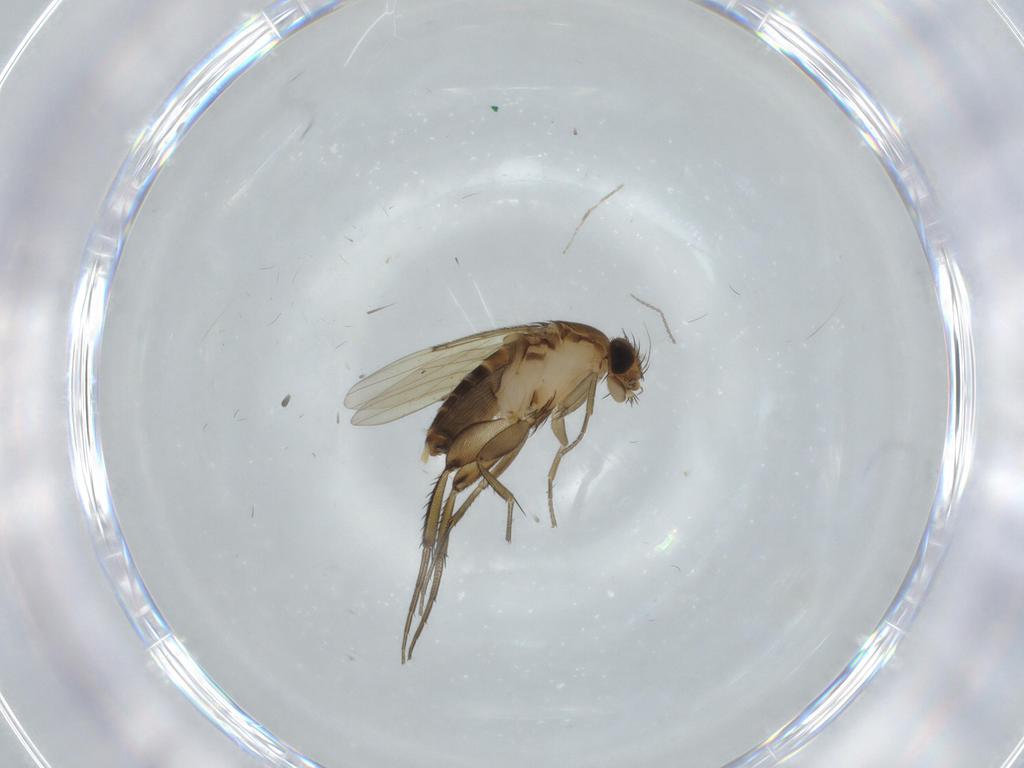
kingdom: Animalia
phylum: Arthropoda
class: Insecta
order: Diptera
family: Phoridae
